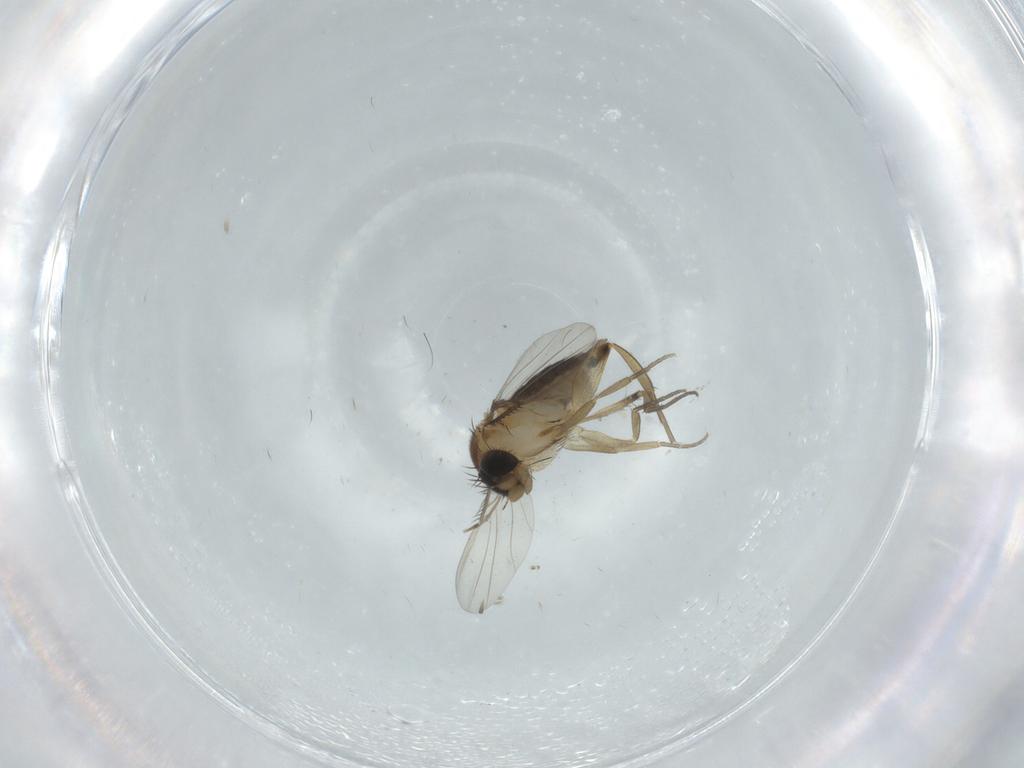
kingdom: Animalia
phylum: Arthropoda
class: Insecta
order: Diptera
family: Phoridae
